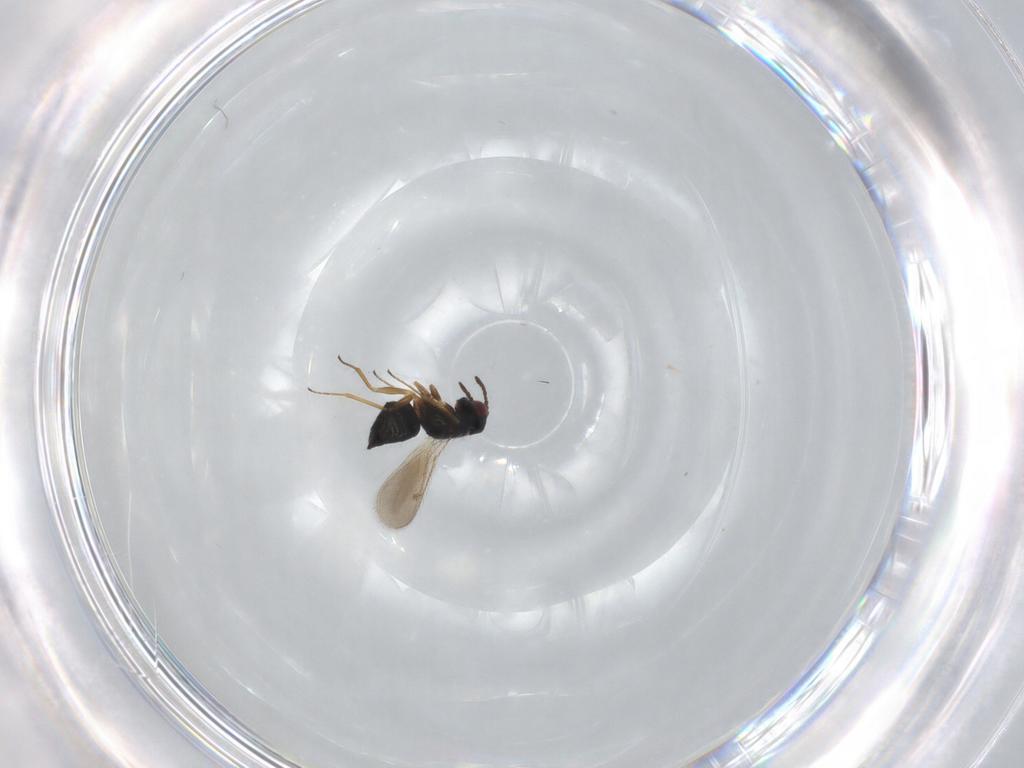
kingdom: Animalia
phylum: Arthropoda
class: Insecta
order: Hymenoptera
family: Tetracampidae
